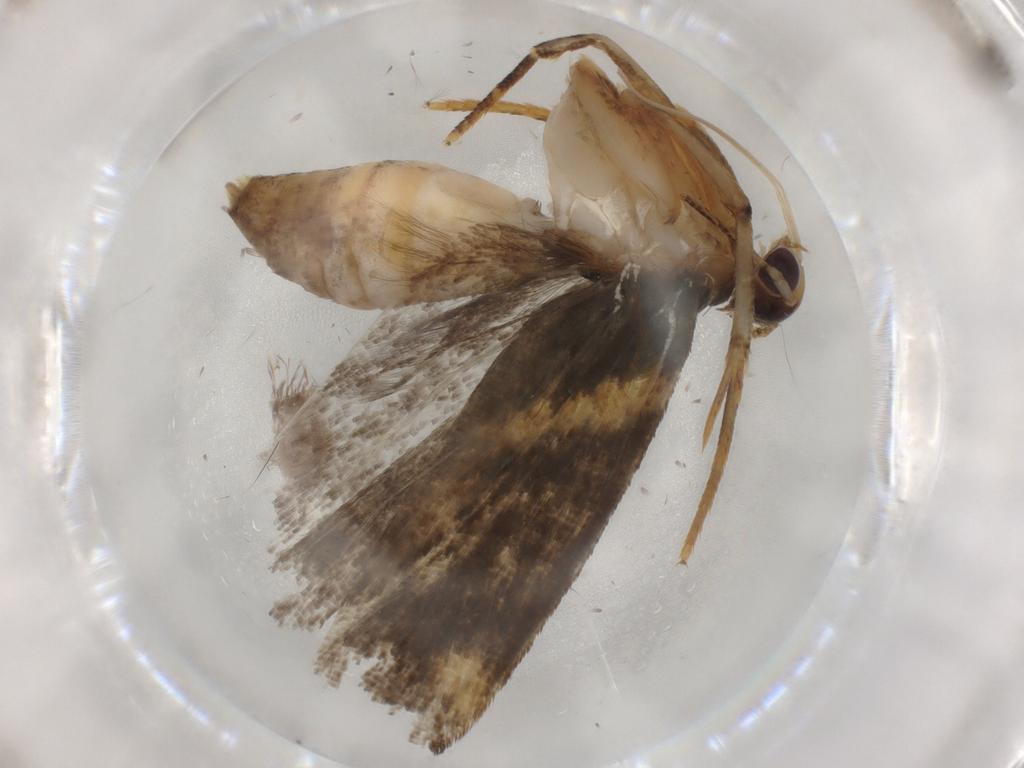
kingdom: Animalia
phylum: Arthropoda
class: Insecta
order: Lepidoptera
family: Gelechiidae
